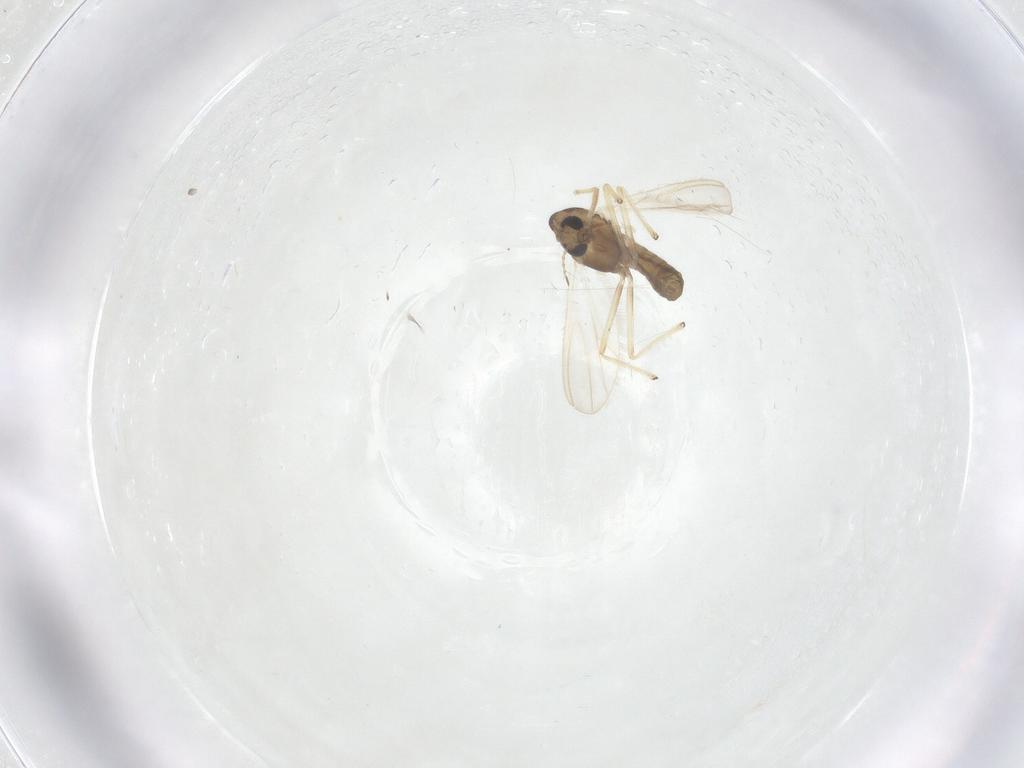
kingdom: Animalia
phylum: Arthropoda
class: Insecta
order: Diptera
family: Chironomidae
